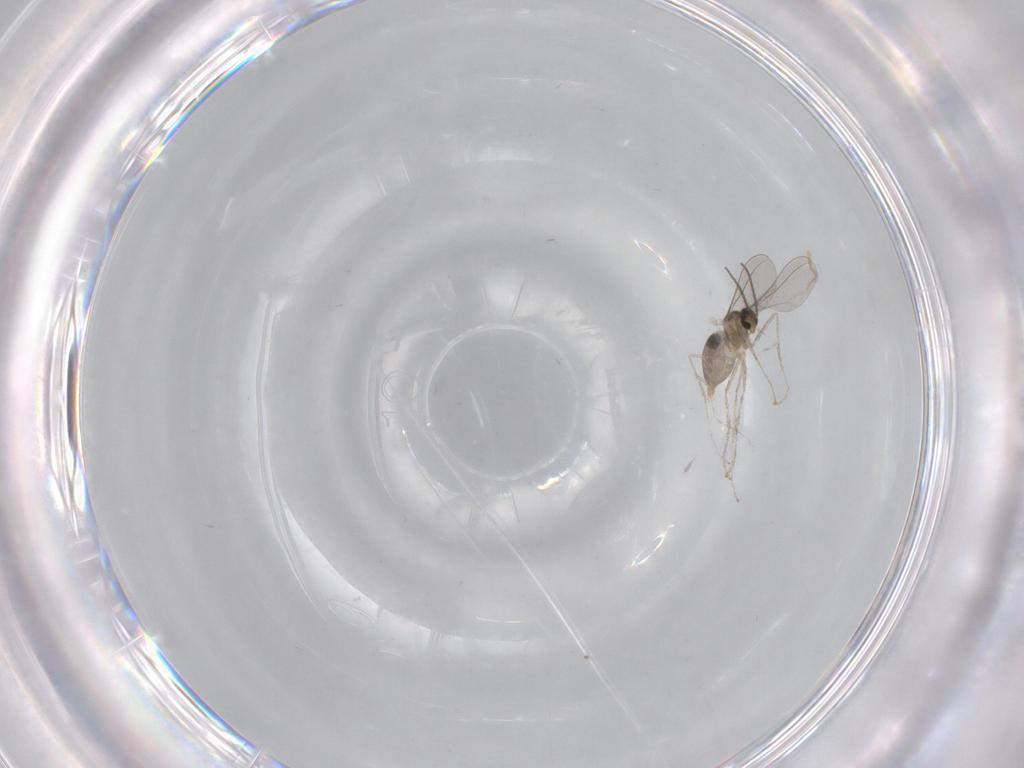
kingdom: Animalia
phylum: Arthropoda
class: Insecta
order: Diptera
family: Cecidomyiidae
